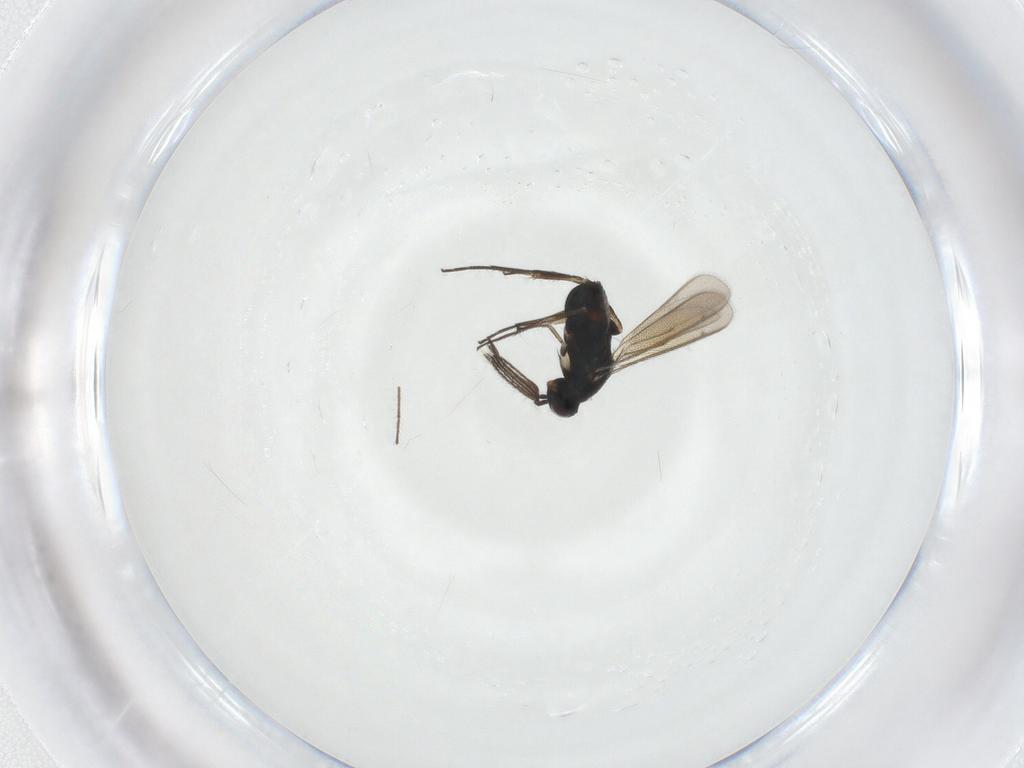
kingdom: Animalia
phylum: Arthropoda
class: Insecta
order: Hymenoptera
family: Eulophidae
